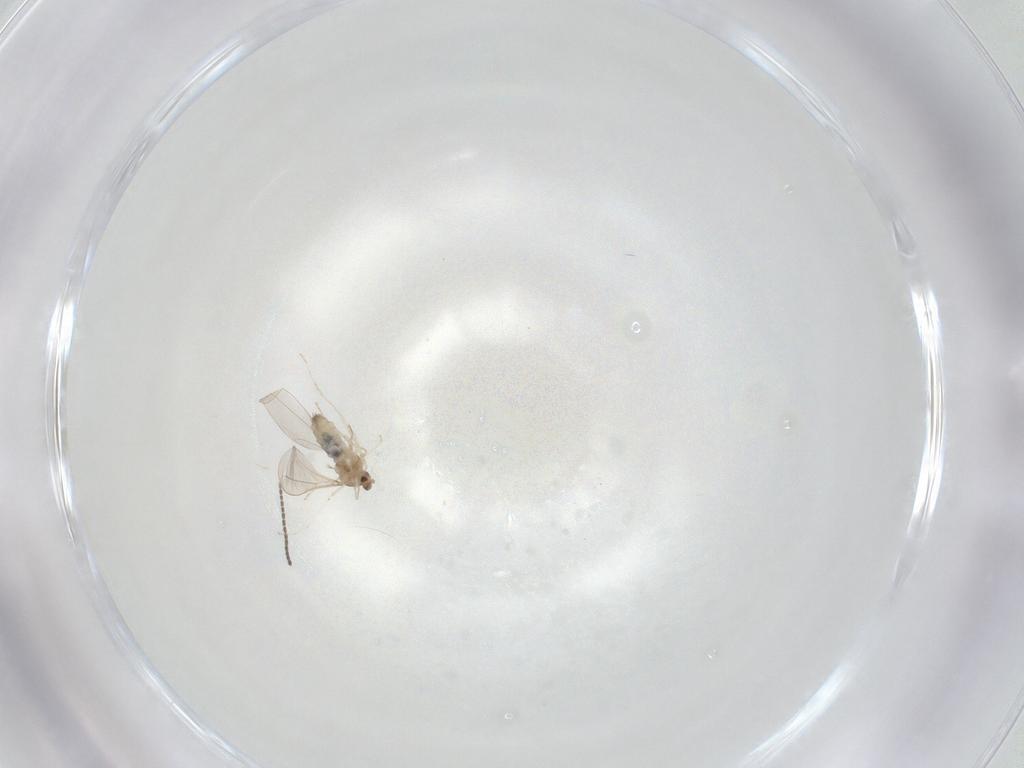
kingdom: Animalia
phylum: Arthropoda
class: Insecta
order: Diptera
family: Cecidomyiidae
